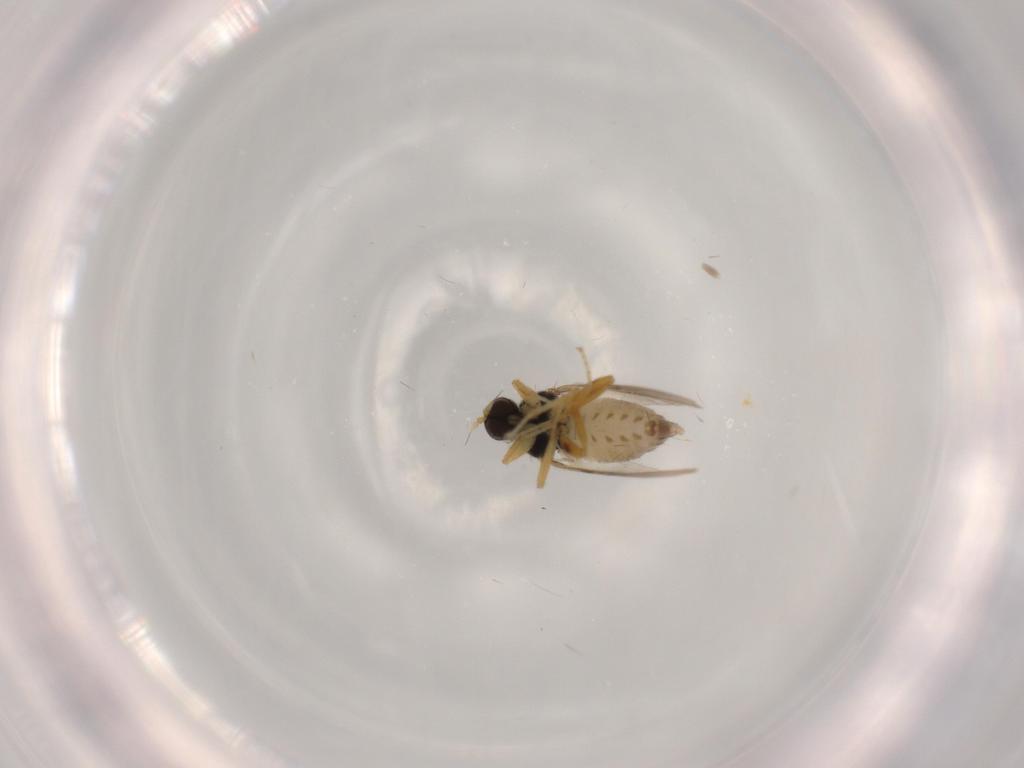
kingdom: Animalia
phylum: Arthropoda
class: Insecta
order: Diptera
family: Hybotidae
